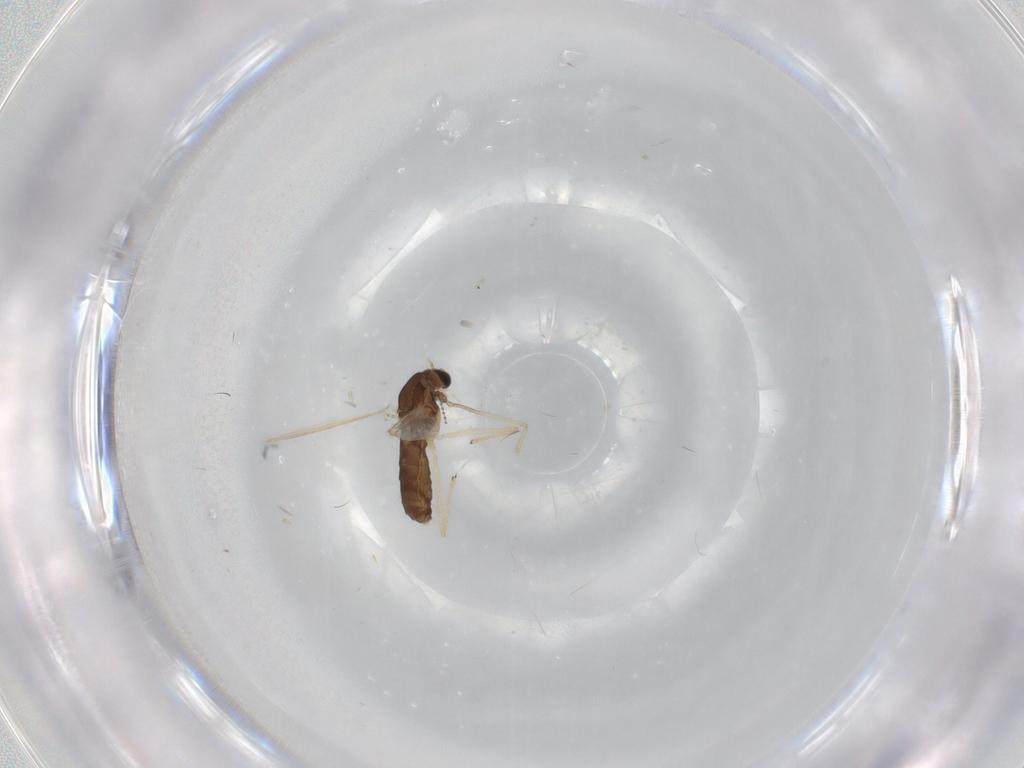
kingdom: Animalia
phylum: Arthropoda
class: Insecta
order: Diptera
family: Chironomidae
